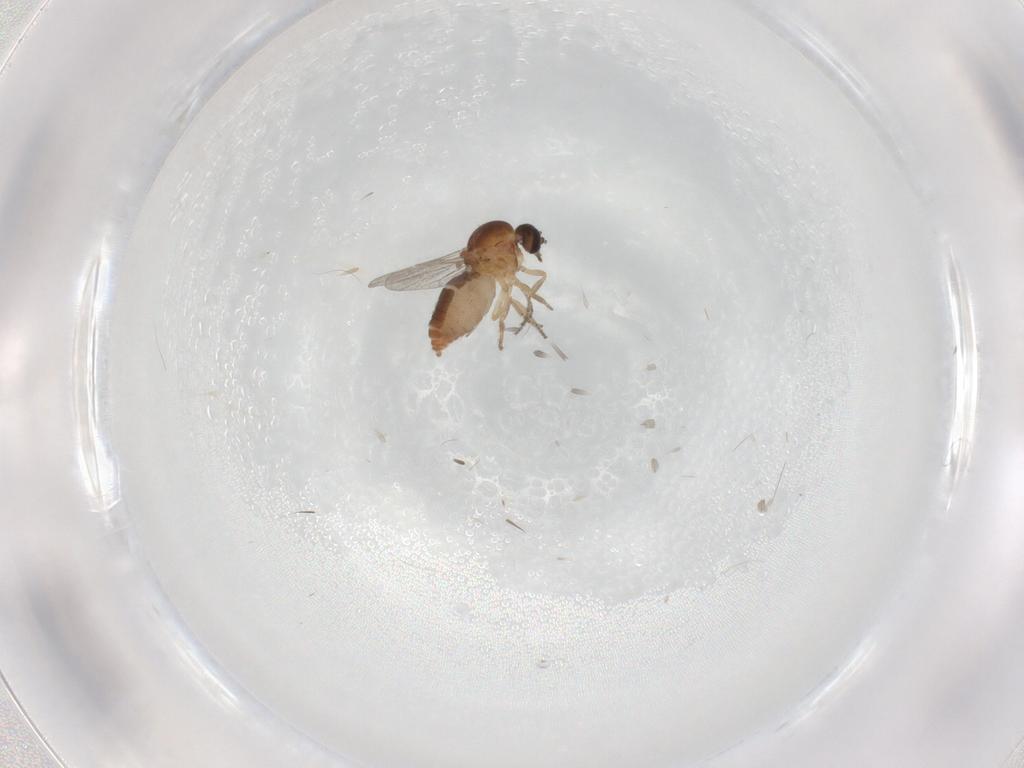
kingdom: Animalia
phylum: Arthropoda
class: Insecta
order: Diptera
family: Ceratopogonidae
